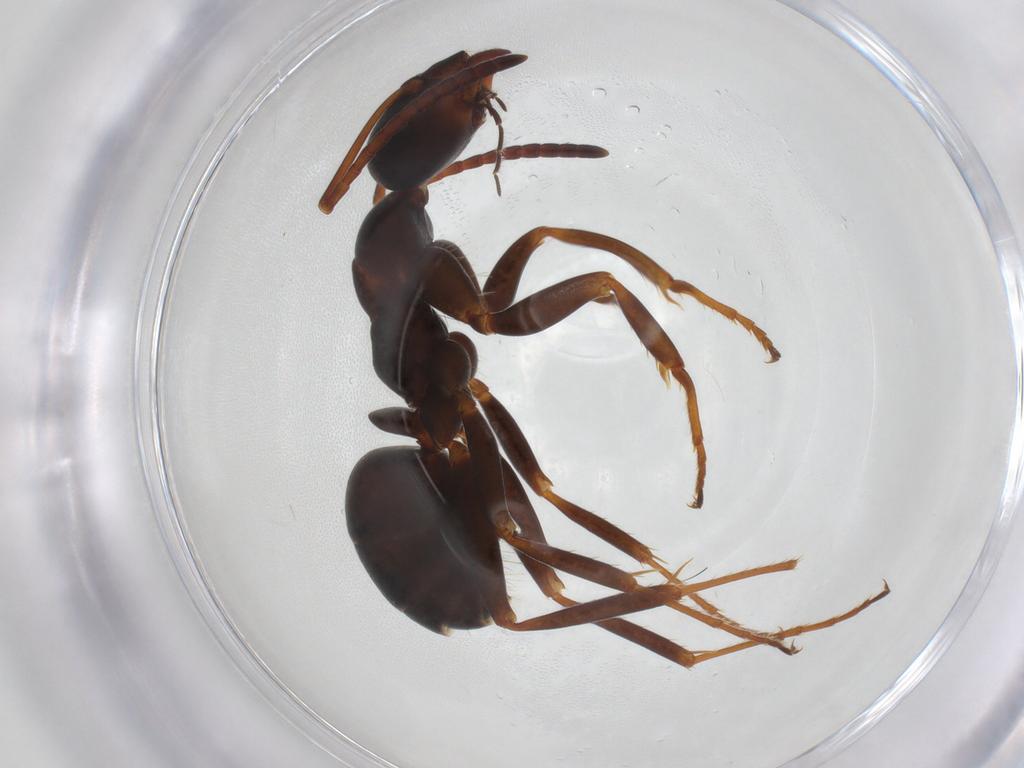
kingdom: Animalia
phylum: Arthropoda
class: Insecta
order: Hymenoptera
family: Formicidae
